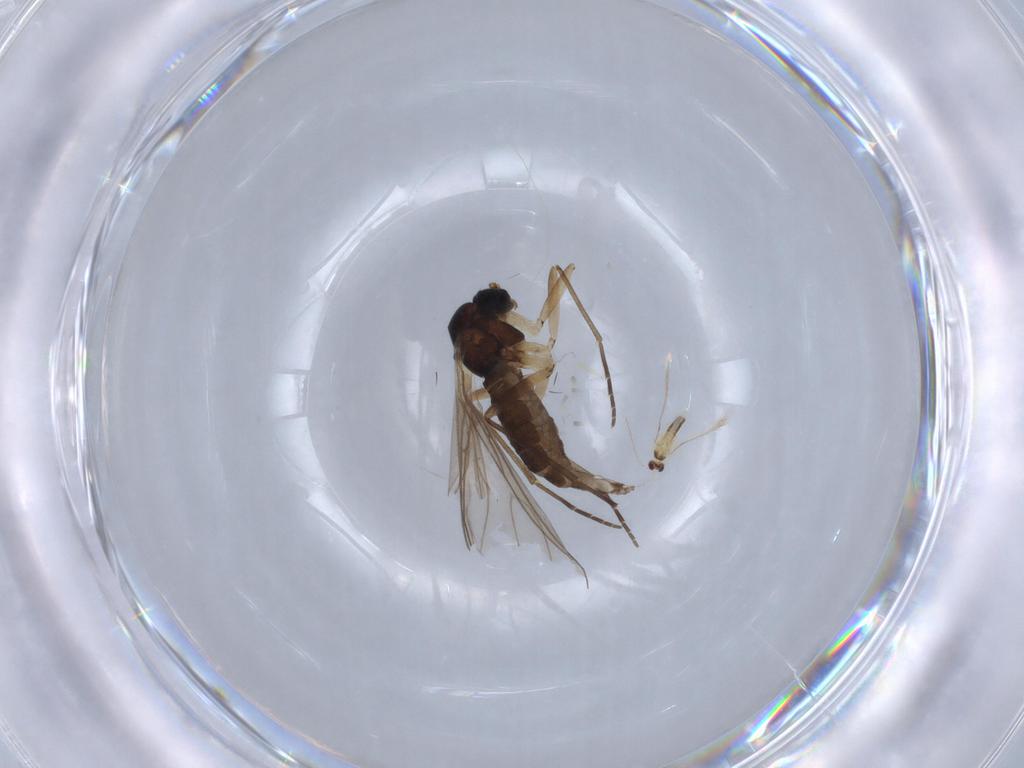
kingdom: Animalia
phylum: Arthropoda
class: Insecta
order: Diptera
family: Sciaridae
